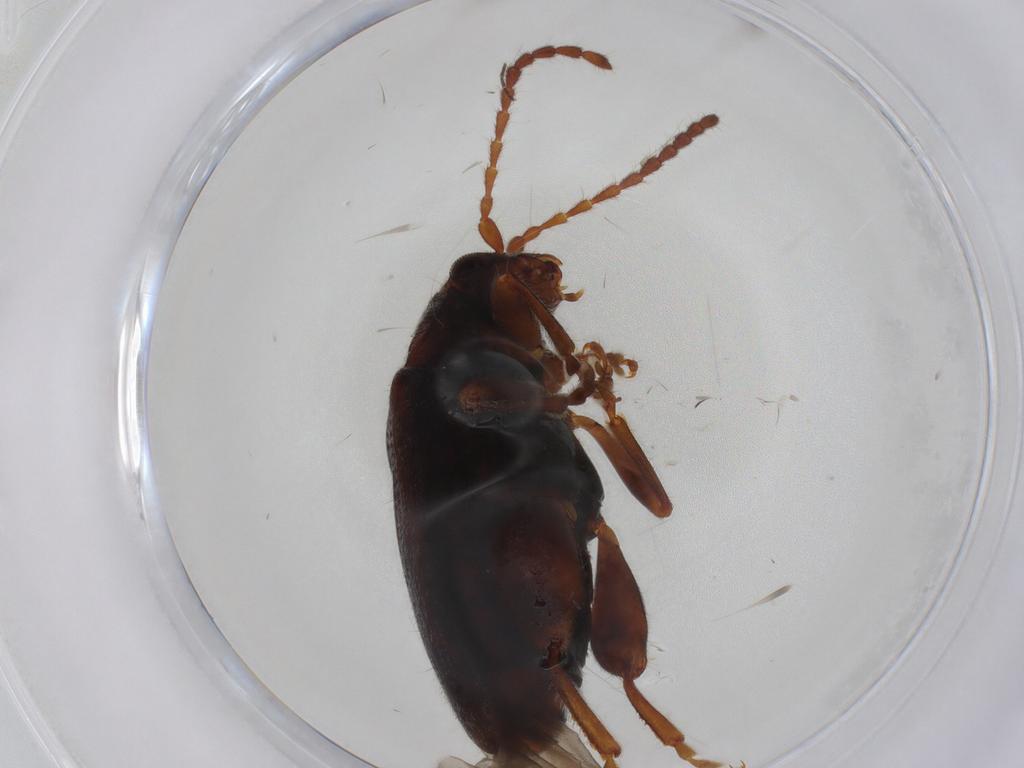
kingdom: Animalia
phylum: Arthropoda
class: Insecta
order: Coleoptera
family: Chrysomelidae
